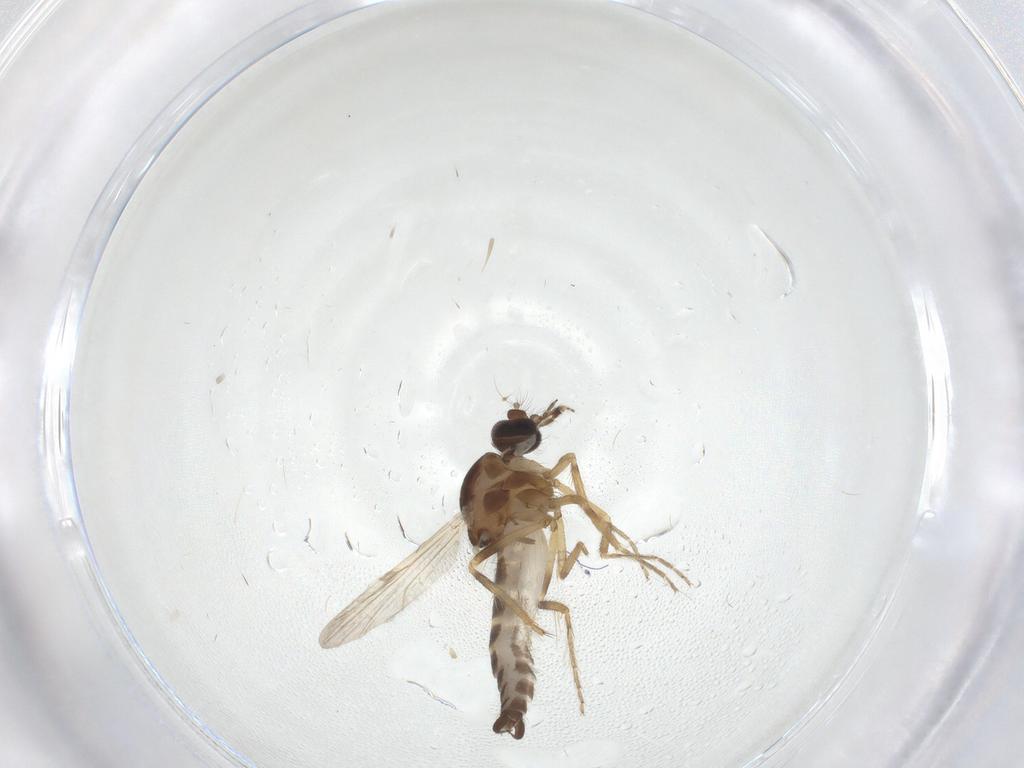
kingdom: Animalia
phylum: Arthropoda
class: Insecta
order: Diptera
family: Ceratopogonidae
